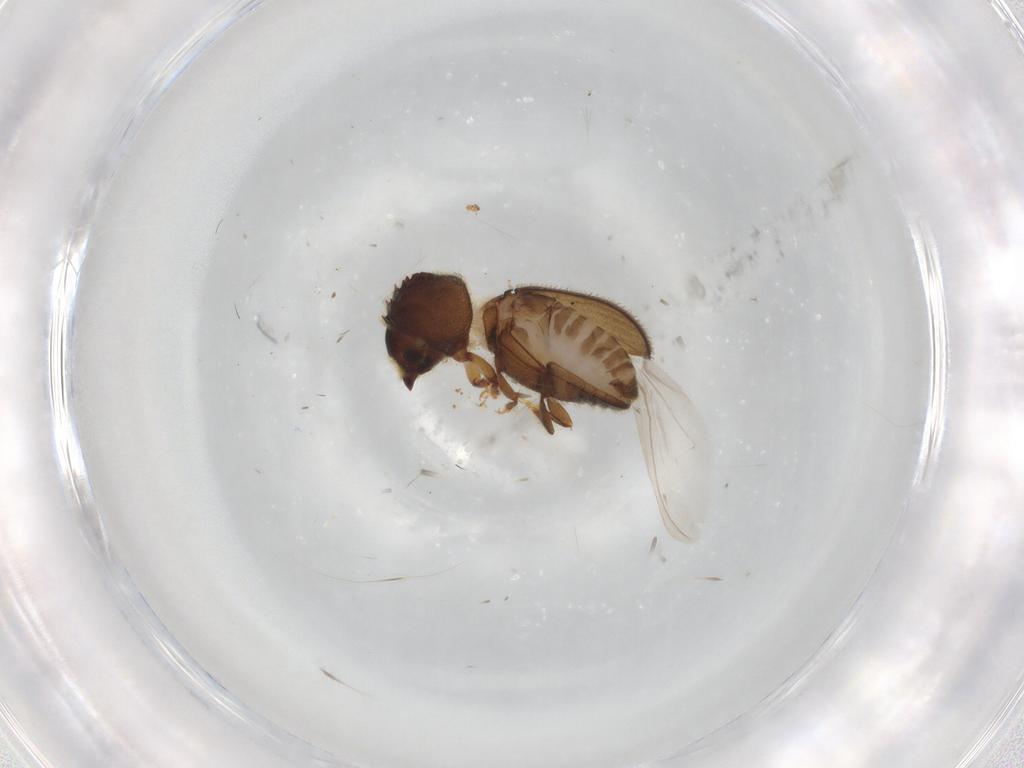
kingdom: Animalia
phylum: Arthropoda
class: Insecta
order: Coleoptera
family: Curculionidae
